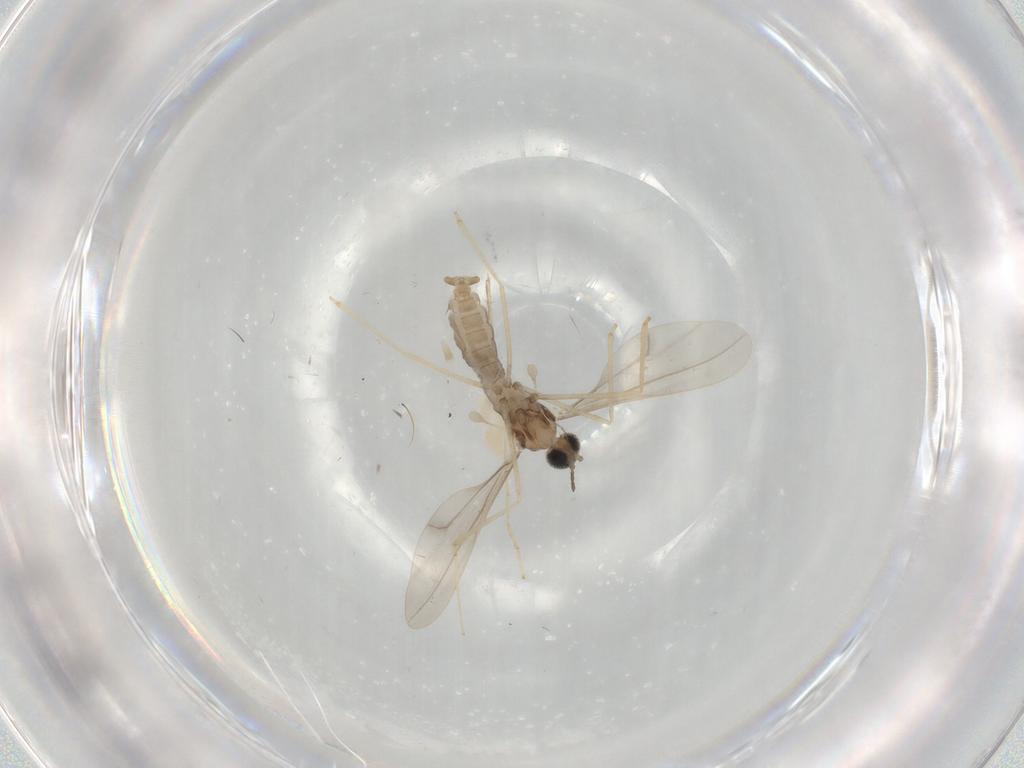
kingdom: Animalia
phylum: Arthropoda
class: Insecta
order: Diptera
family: Cecidomyiidae
